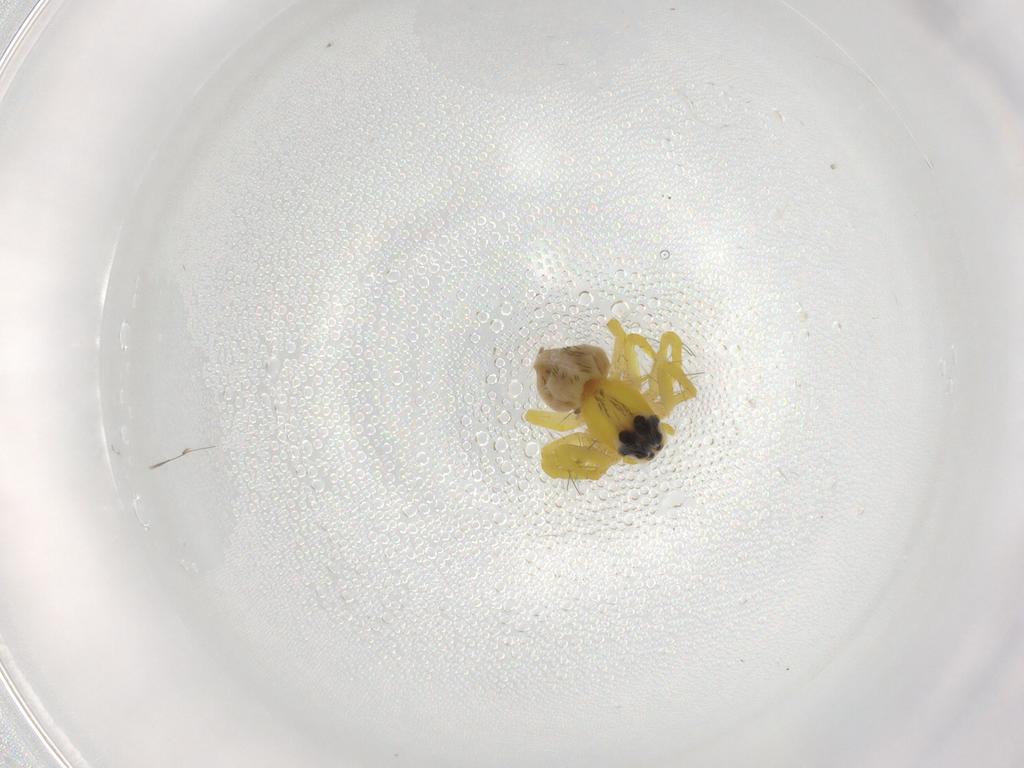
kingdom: Animalia
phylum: Arthropoda
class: Arachnida
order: Araneae
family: Oxyopidae
